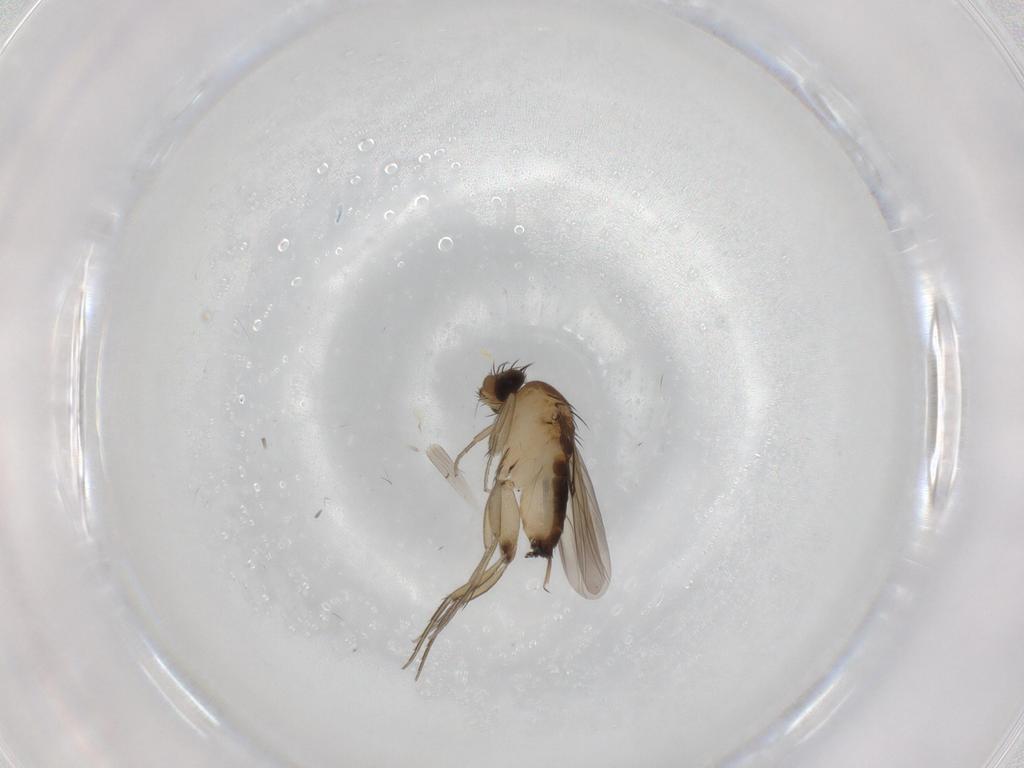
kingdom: Animalia
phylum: Arthropoda
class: Insecta
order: Diptera
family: Phoridae
